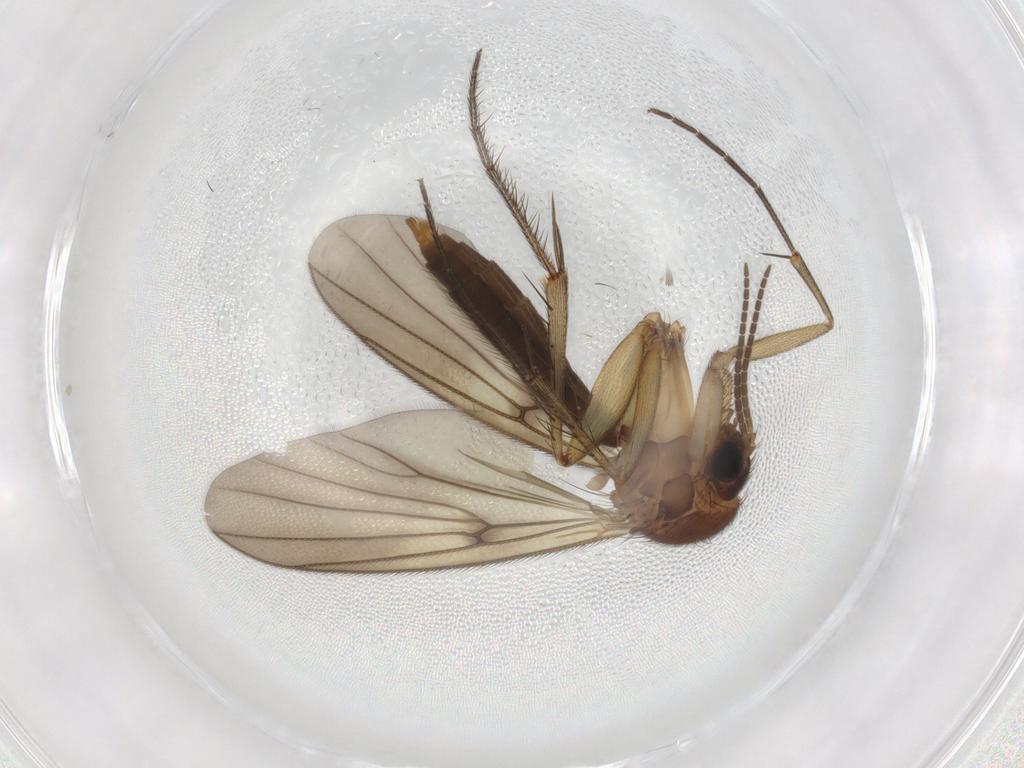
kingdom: Animalia
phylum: Arthropoda
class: Insecta
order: Diptera
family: Mycetophilidae
